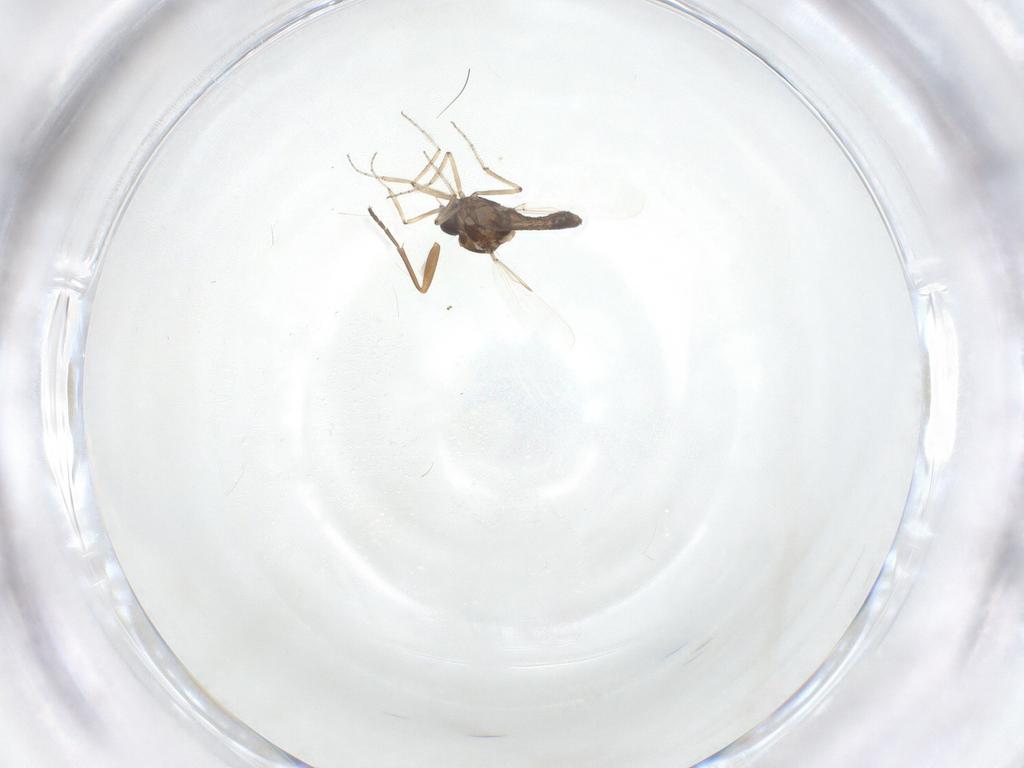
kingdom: Animalia
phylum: Arthropoda
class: Insecta
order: Diptera
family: Ceratopogonidae
